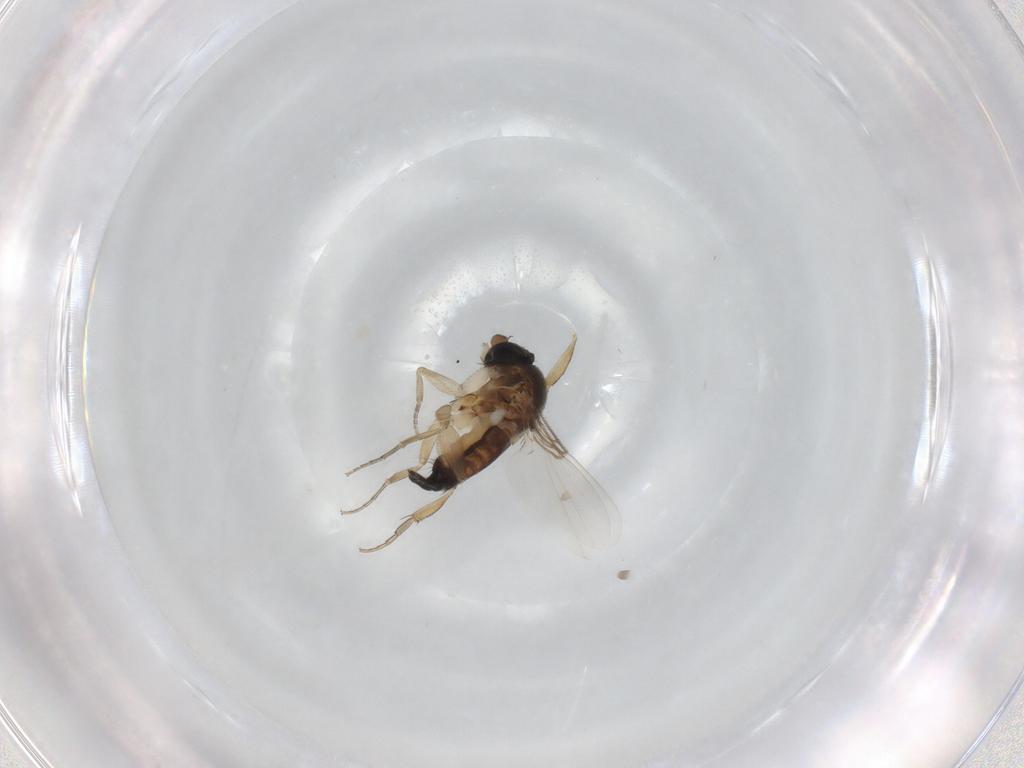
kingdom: Animalia
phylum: Arthropoda
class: Insecta
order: Diptera
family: Phoridae
